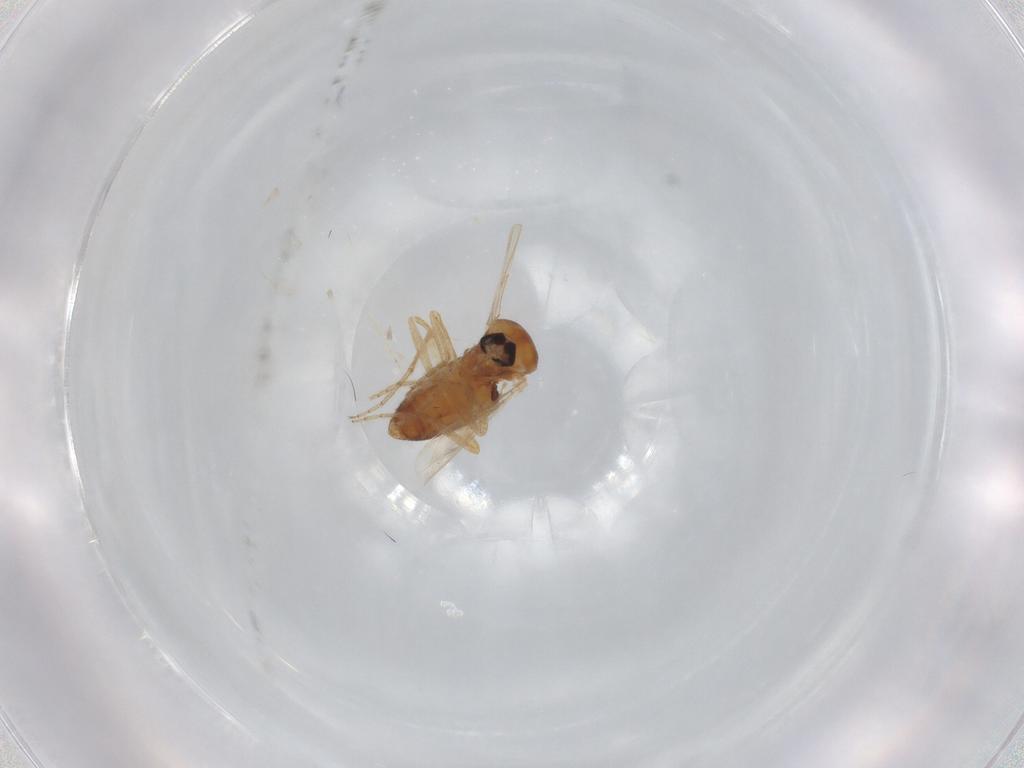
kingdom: Animalia
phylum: Arthropoda
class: Insecta
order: Diptera
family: Ceratopogonidae
